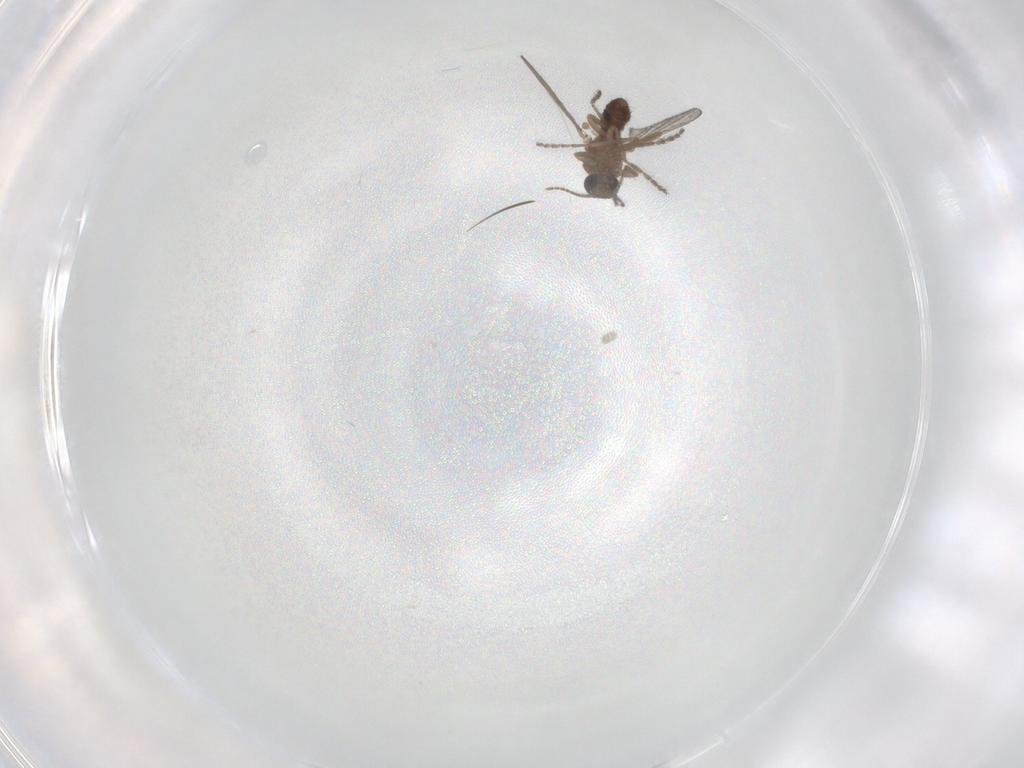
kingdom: Animalia
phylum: Arthropoda
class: Insecta
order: Diptera
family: Ceratopogonidae
